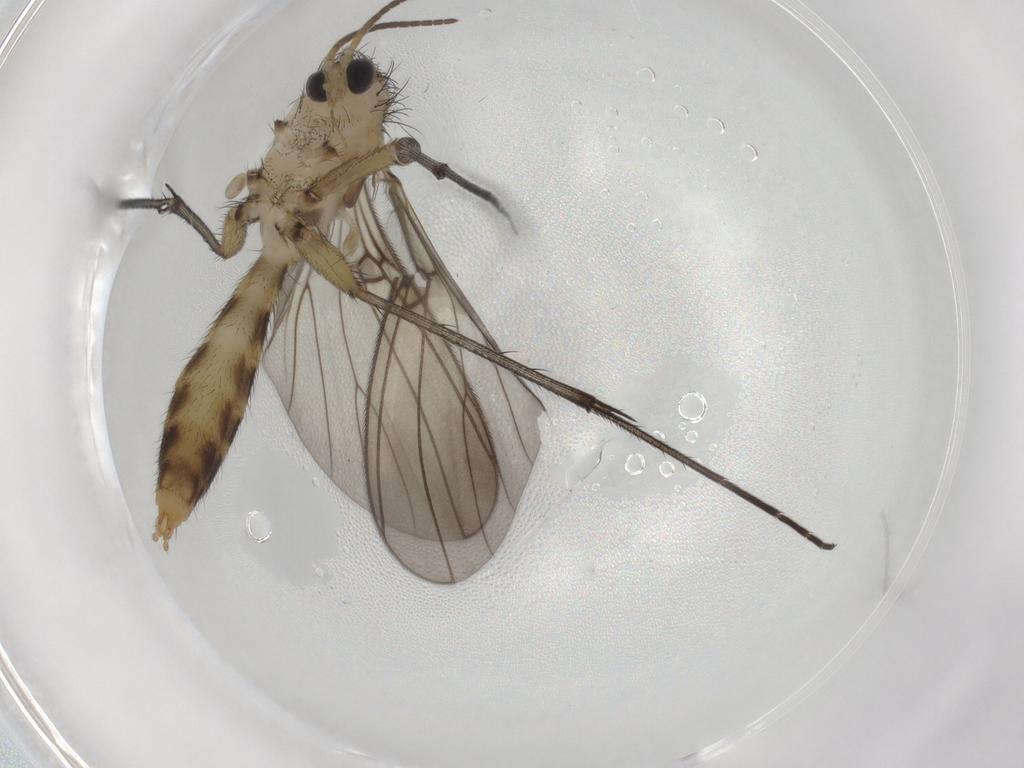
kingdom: Animalia
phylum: Arthropoda
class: Insecta
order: Diptera
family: Mycetophilidae
